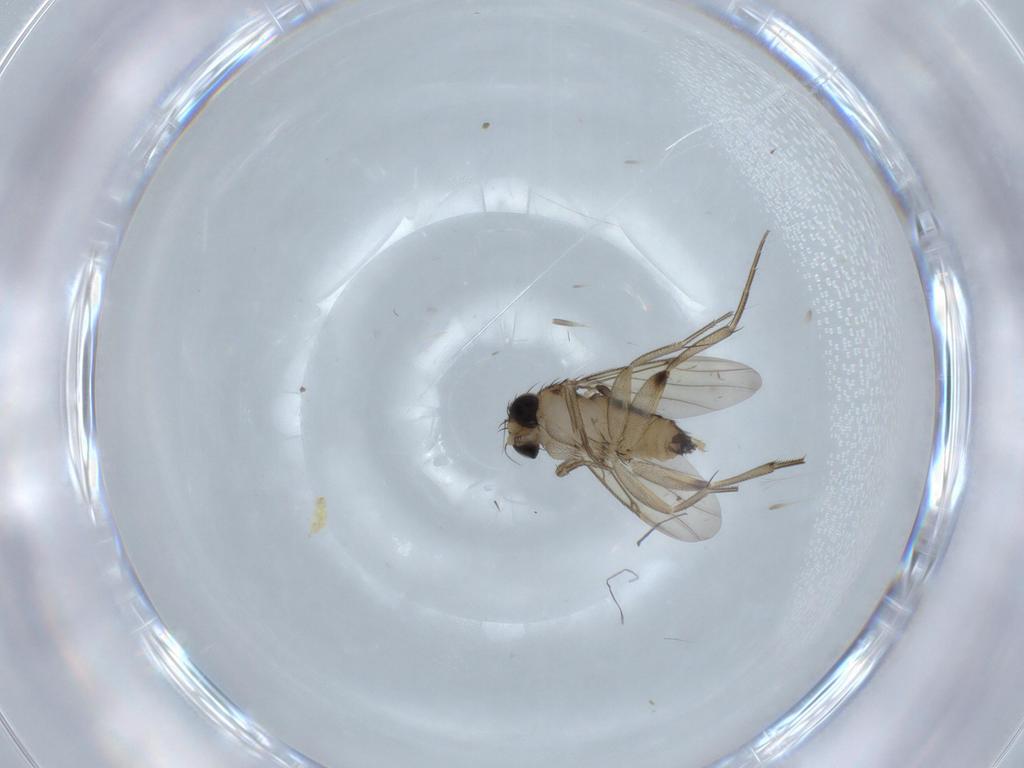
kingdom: Animalia
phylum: Arthropoda
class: Insecta
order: Diptera
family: Phoridae
